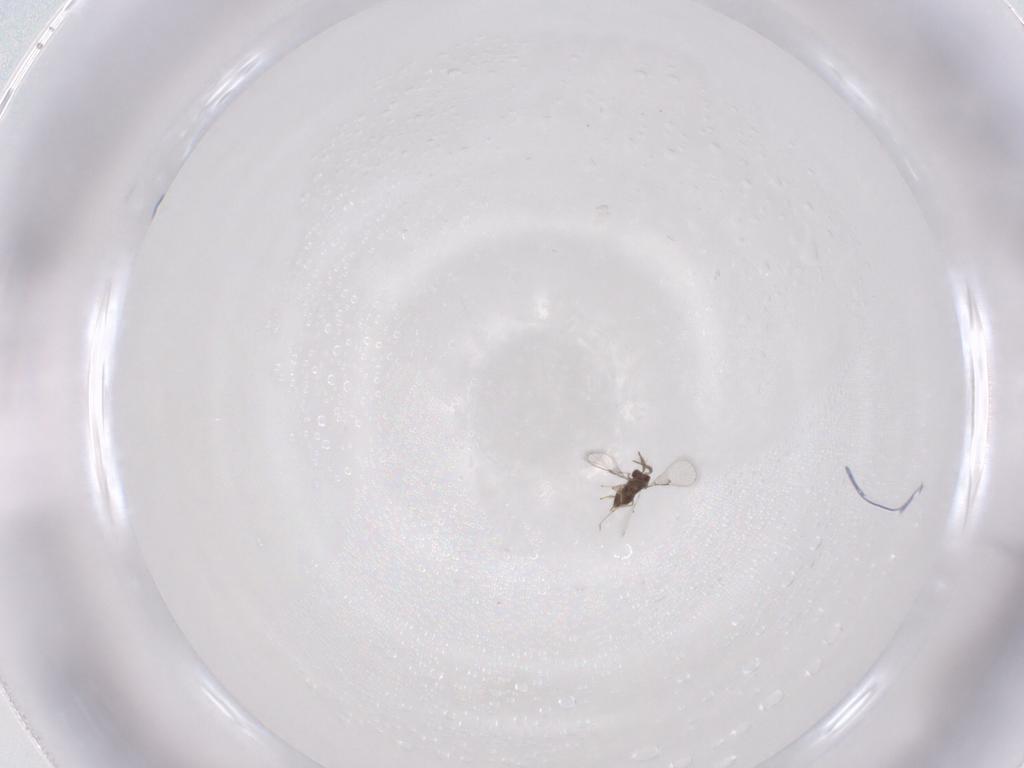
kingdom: Animalia
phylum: Arthropoda
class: Insecta
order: Hymenoptera
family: Trichogrammatidae
